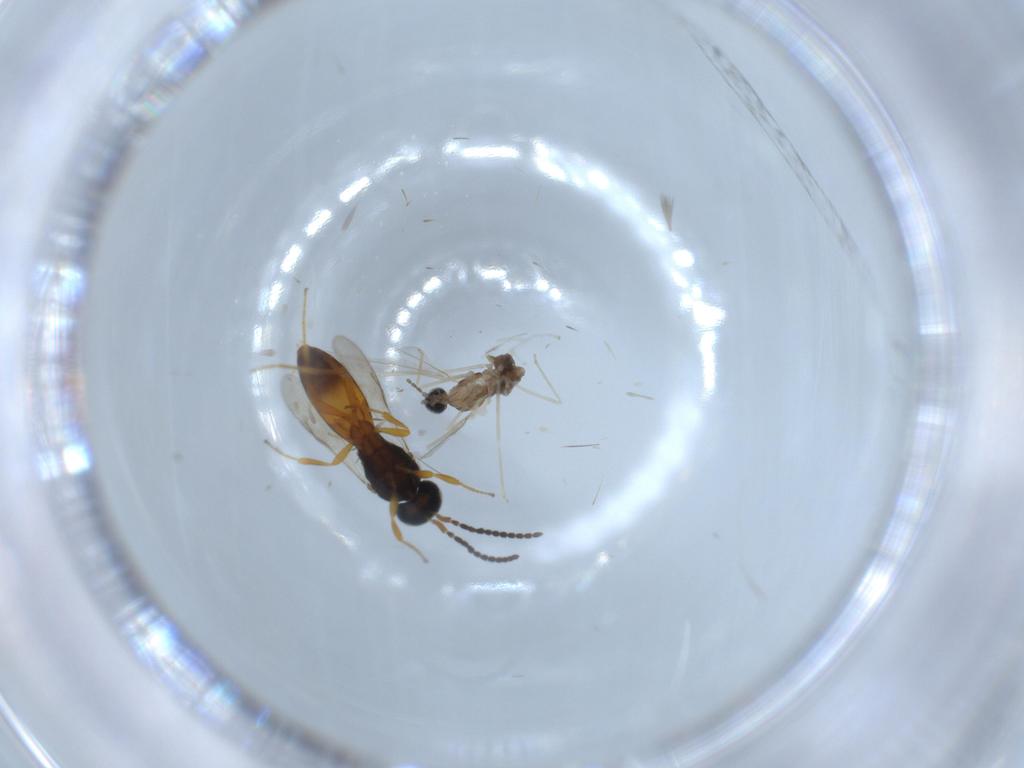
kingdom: Animalia
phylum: Arthropoda
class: Insecta
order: Diptera
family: Cecidomyiidae
